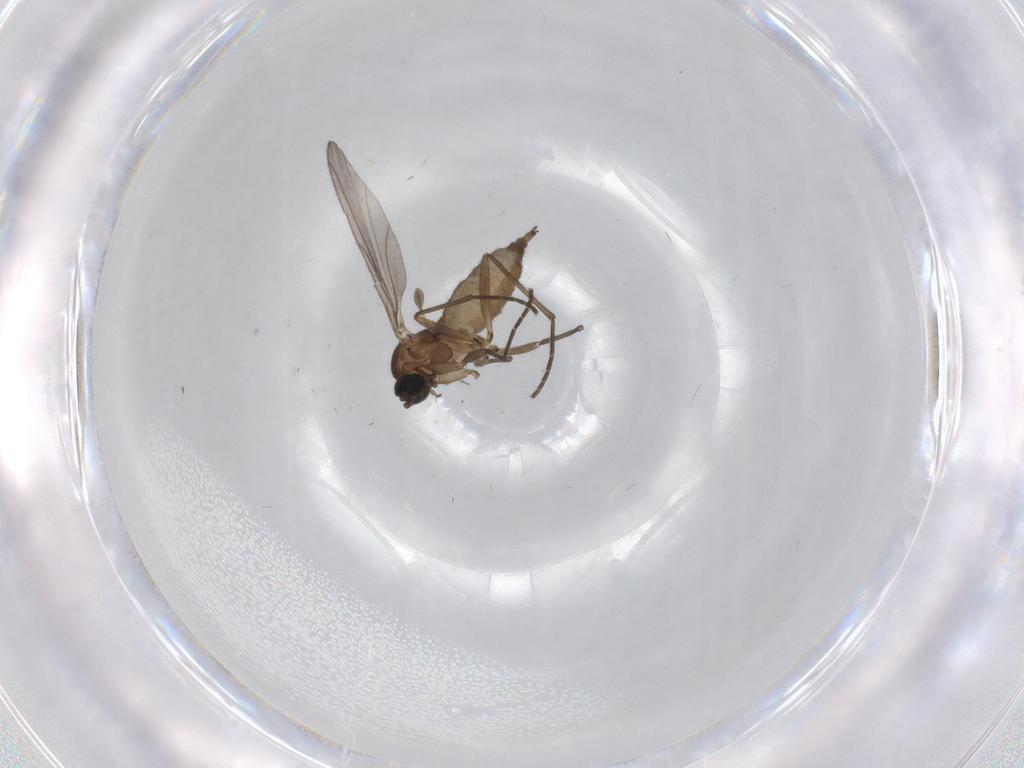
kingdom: Animalia
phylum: Arthropoda
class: Insecta
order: Diptera
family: Sciaridae
